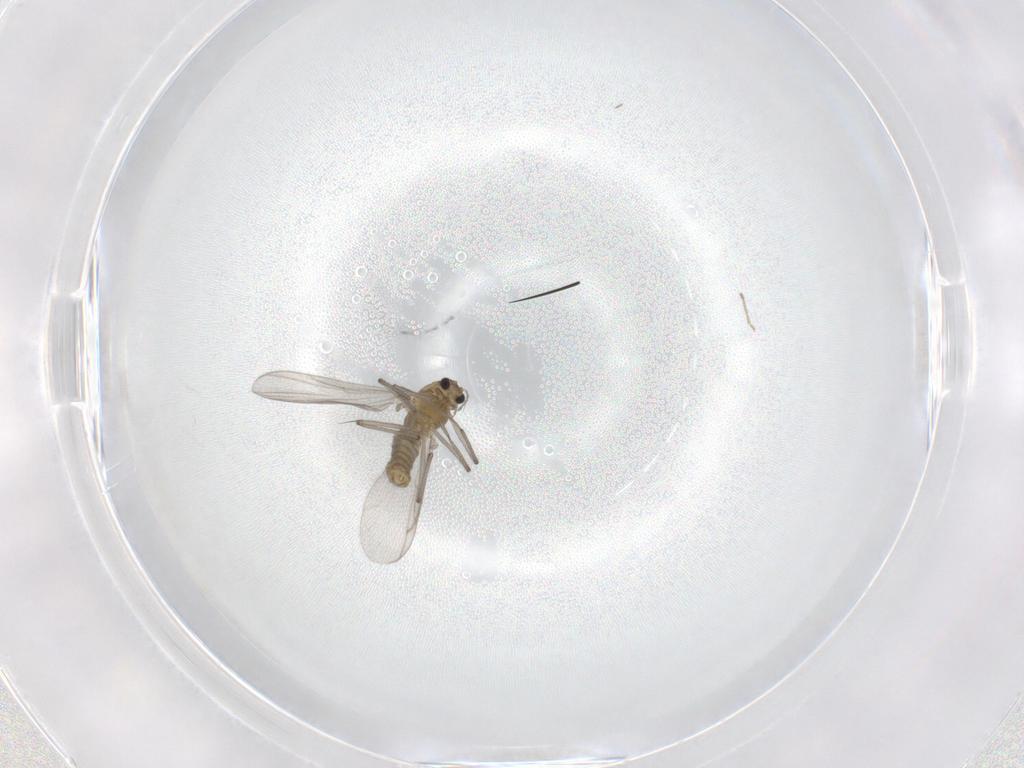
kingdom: Animalia
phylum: Arthropoda
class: Insecta
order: Diptera
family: Chironomidae
